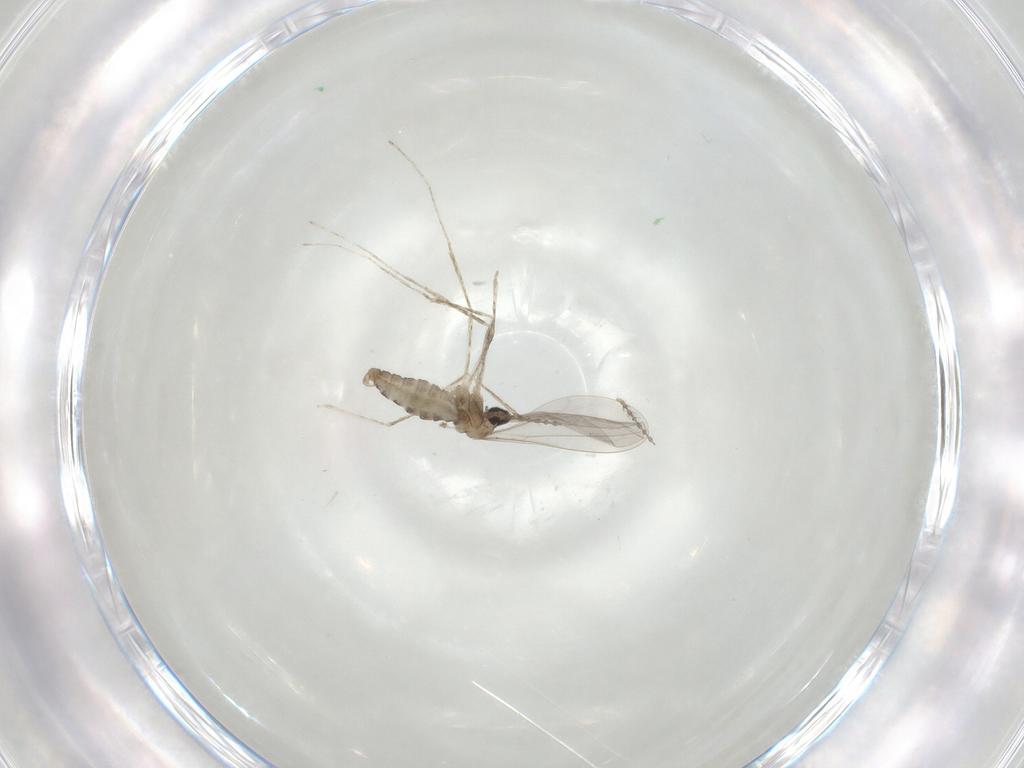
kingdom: Animalia
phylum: Arthropoda
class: Insecta
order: Diptera
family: Cecidomyiidae
